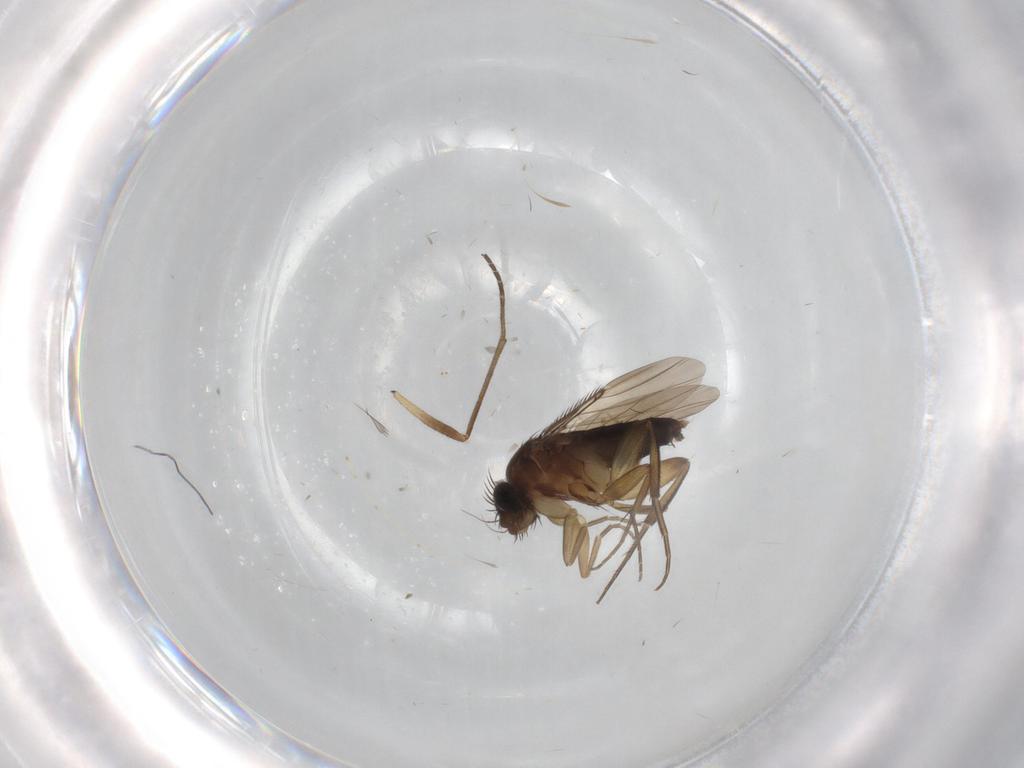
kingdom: Animalia
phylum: Arthropoda
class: Insecta
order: Diptera
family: Phoridae
